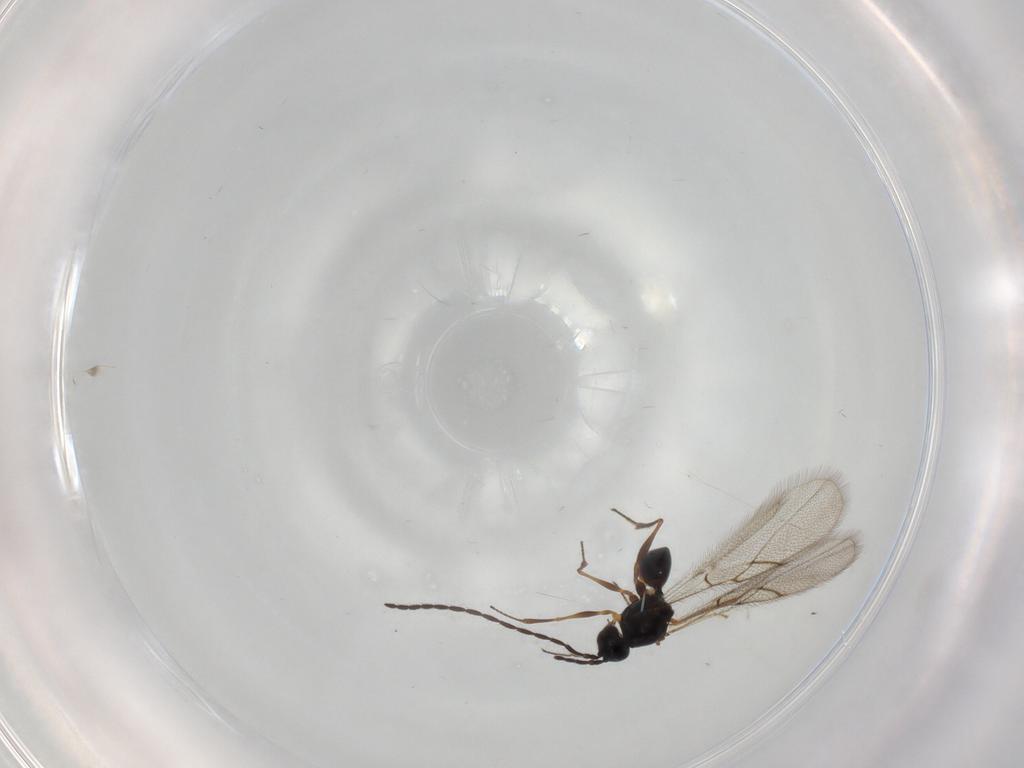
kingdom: Animalia
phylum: Arthropoda
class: Insecta
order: Hymenoptera
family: Figitidae
